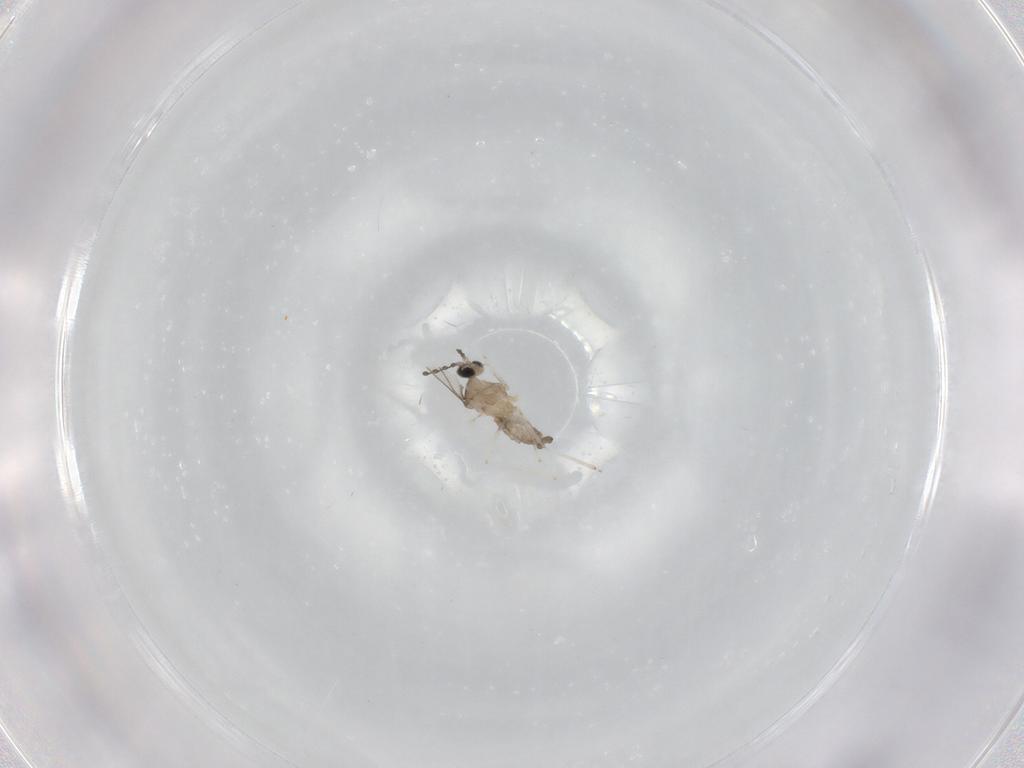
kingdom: Animalia
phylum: Arthropoda
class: Insecta
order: Diptera
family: Cecidomyiidae
